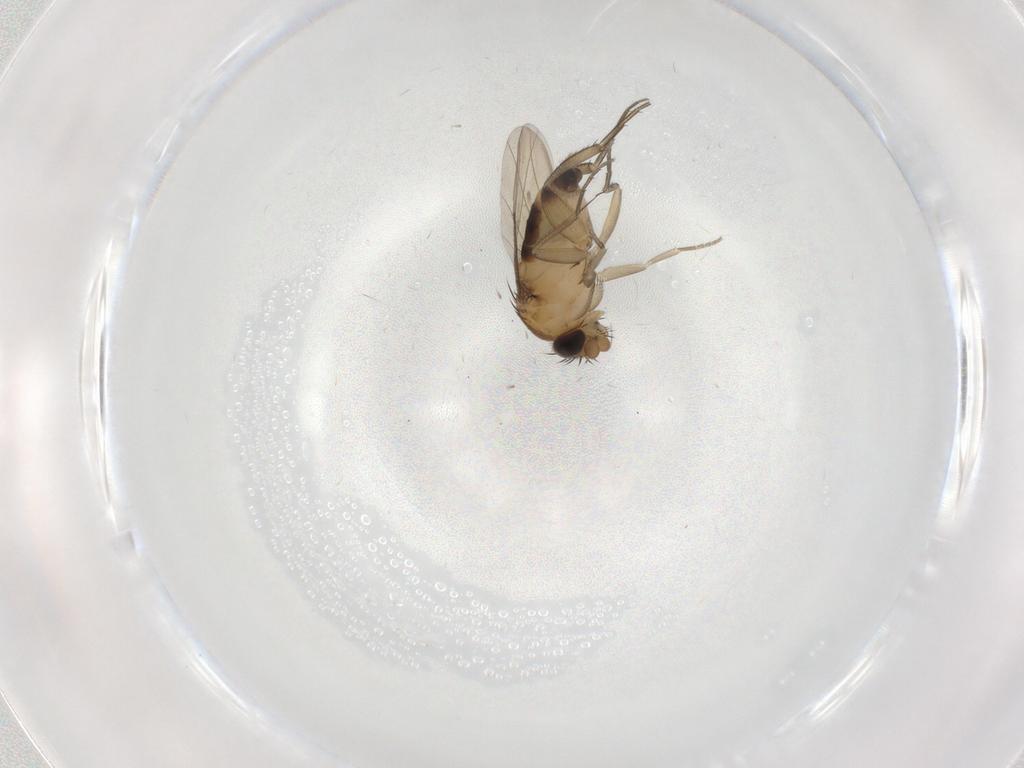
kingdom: Animalia
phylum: Arthropoda
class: Insecta
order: Diptera
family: Phoridae
